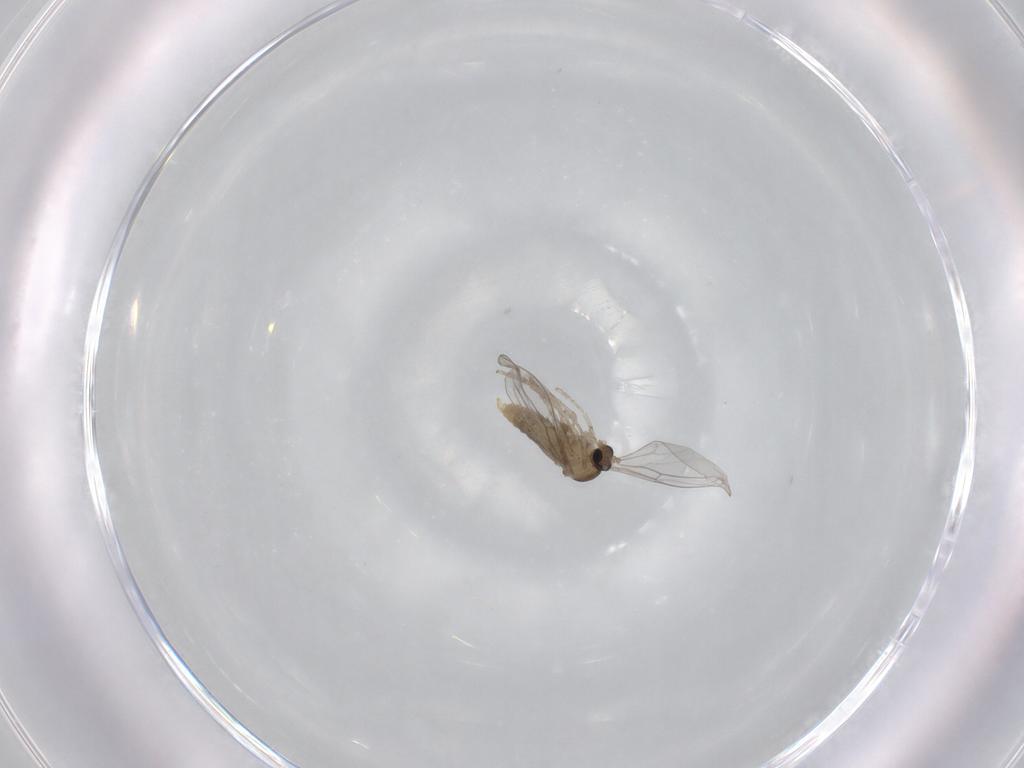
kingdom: Animalia
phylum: Arthropoda
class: Insecta
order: Diptera
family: Cecidomyiidae
